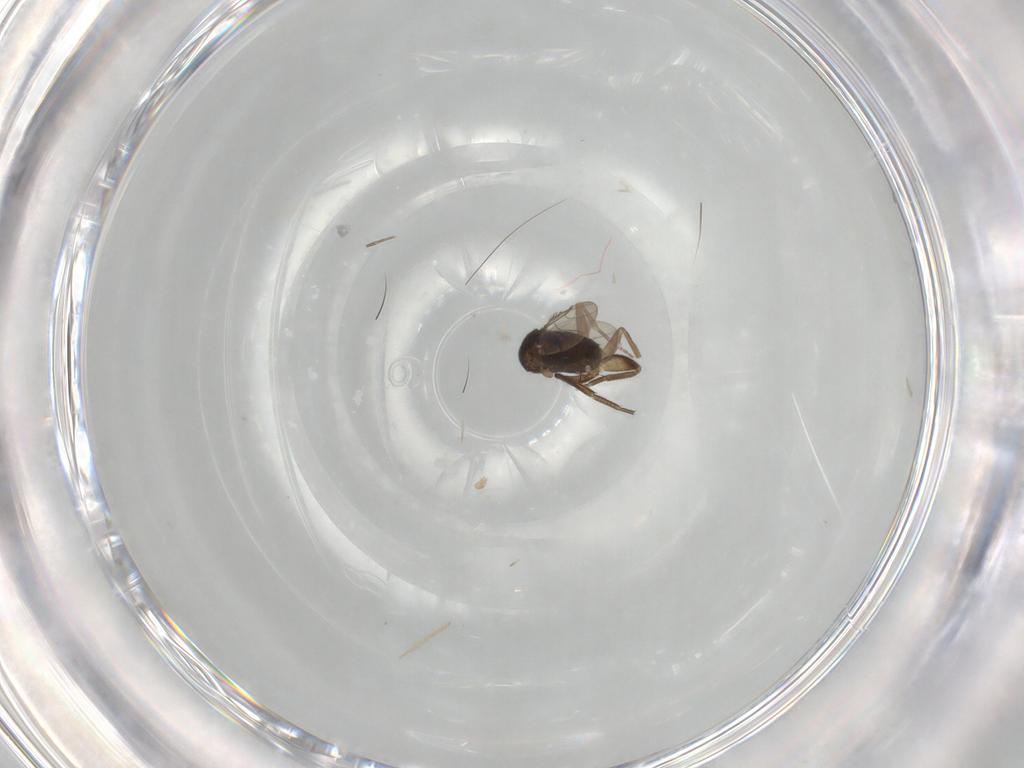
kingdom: Animalia
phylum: Arthropoda
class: Insecta
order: Diptera
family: Phoridae
